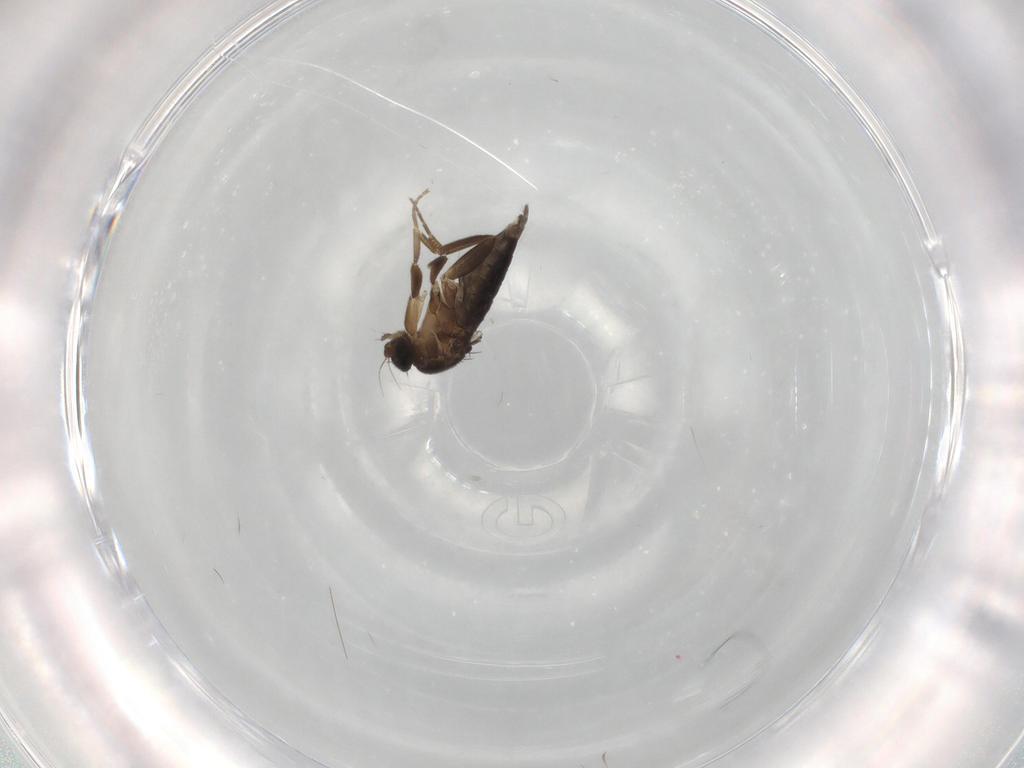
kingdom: Animalia
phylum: Arthropoda
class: Insecta
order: Diptera
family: Phoridae
